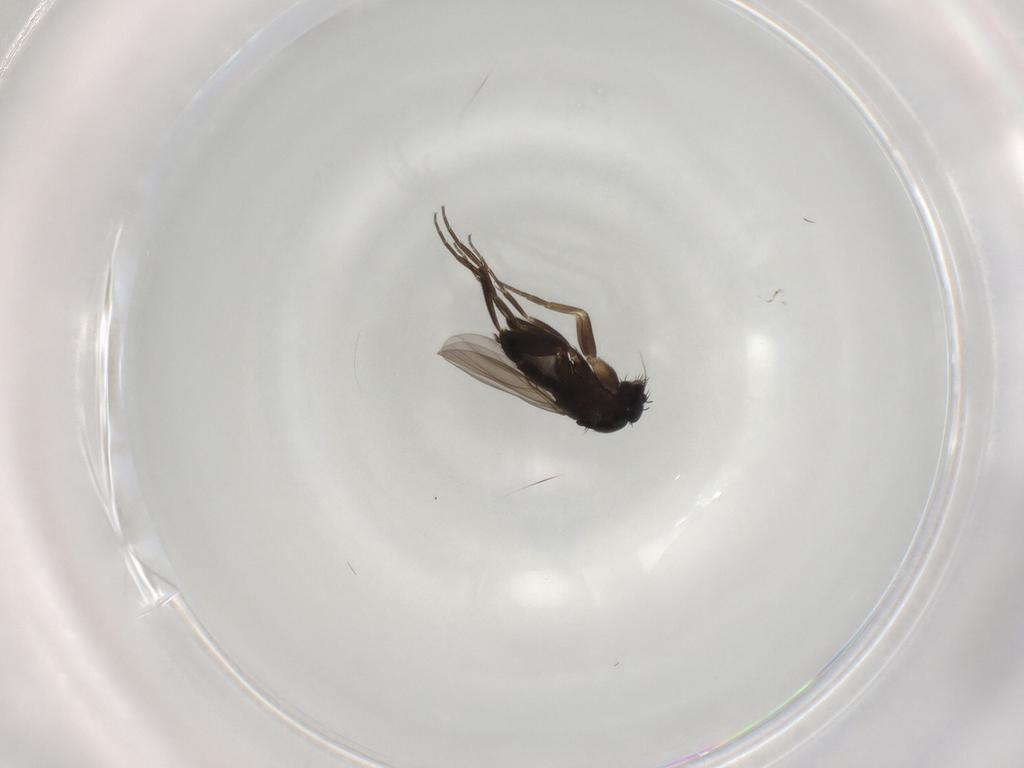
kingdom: Animalia
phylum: Arthropoda
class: Insecta
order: Diptera
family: Phoridae
